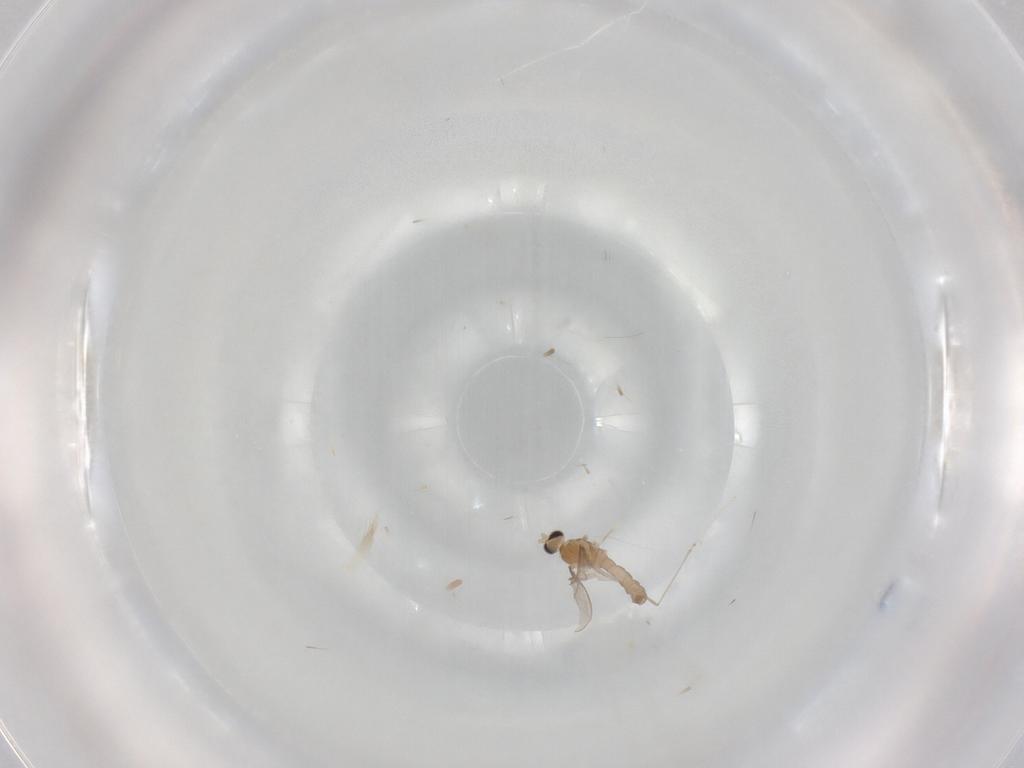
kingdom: Animalia
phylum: Arthropoda
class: Insecta
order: Diptera
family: Cecidomyiidae
